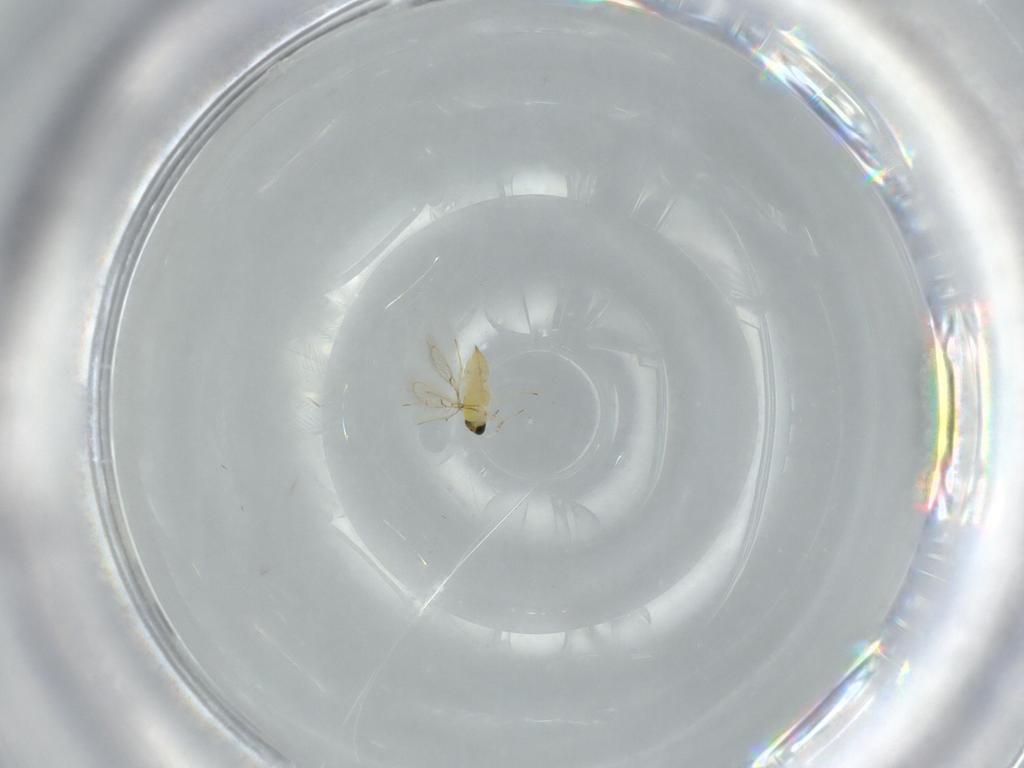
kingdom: Animalia
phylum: Arthropoda
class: Insecta
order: Hymenoptera
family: Trichogrammatidae
